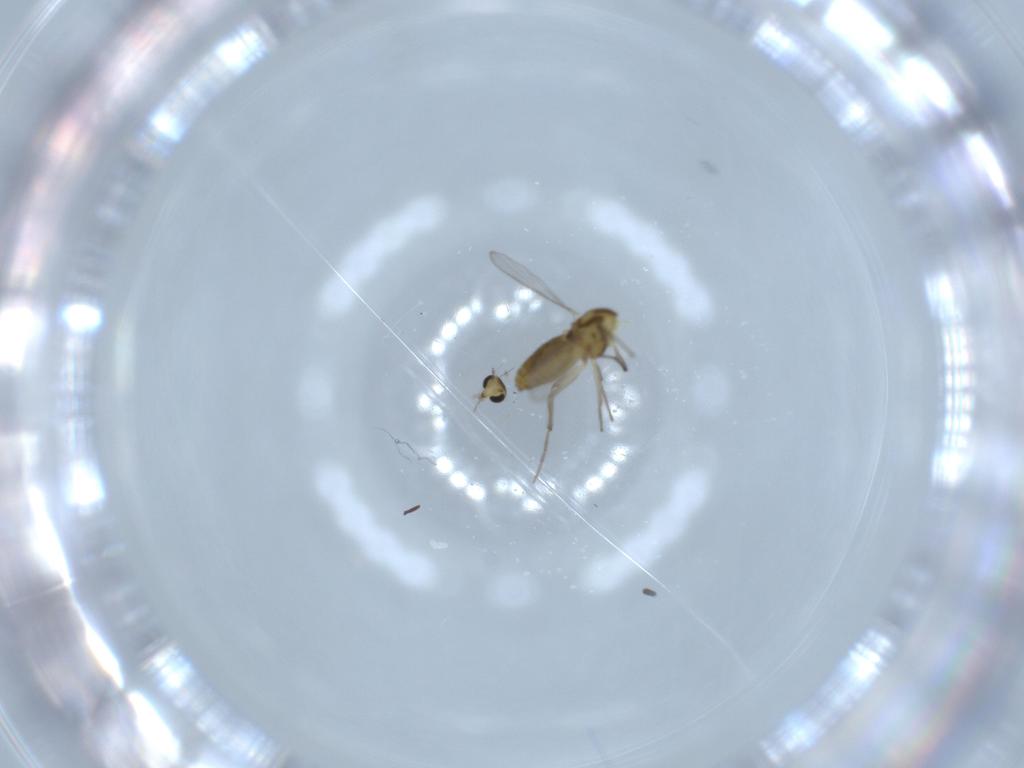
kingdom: Animalia
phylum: Arthropoda
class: Insecta
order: Diptera
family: Chironomidae
